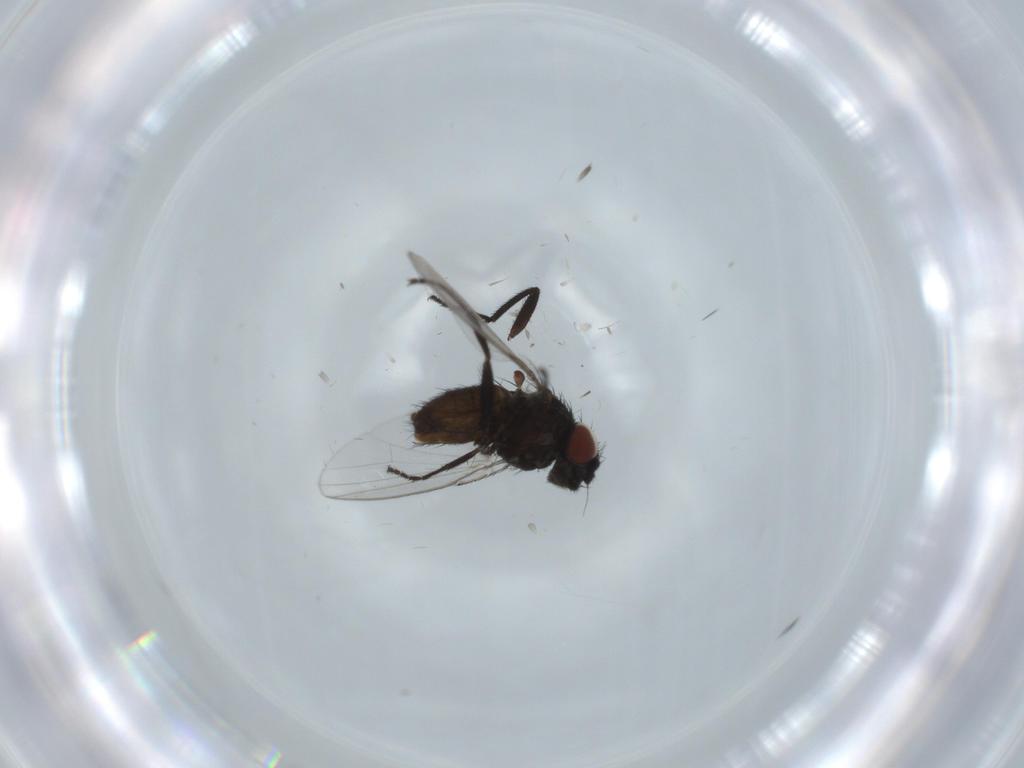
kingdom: Animalia
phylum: Arthropoda
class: Insecta
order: Diptera
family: Milichiidae
